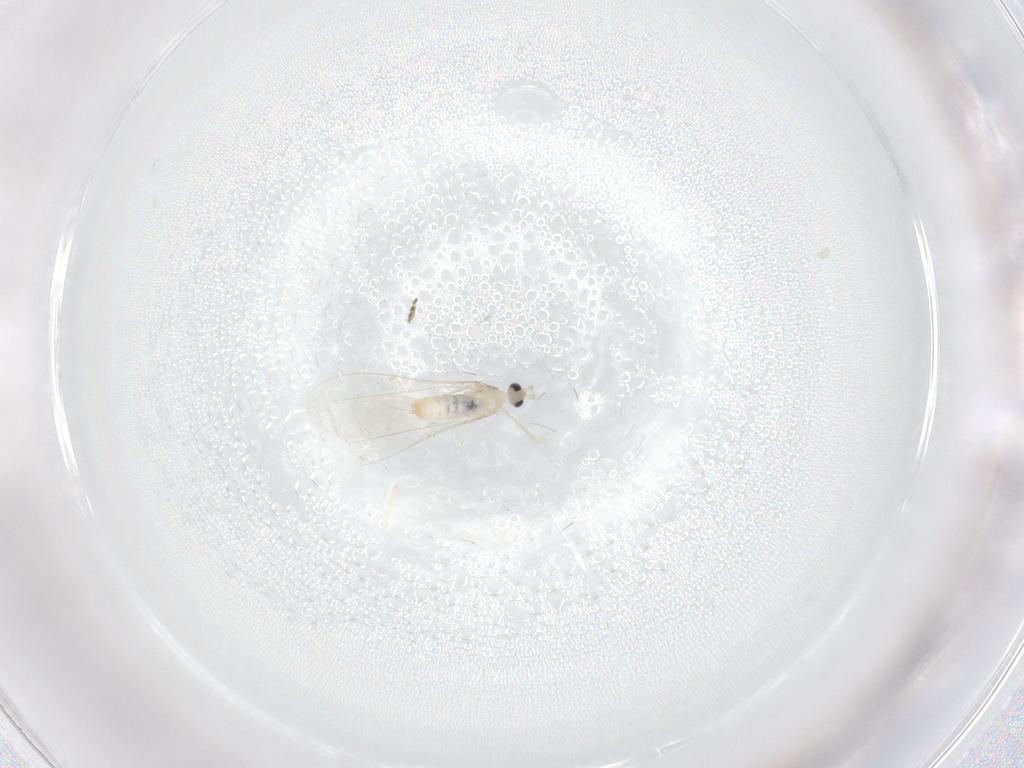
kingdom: Animalia
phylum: Arthropoda
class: Insecta
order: Diptera
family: Cecidomyiidae
